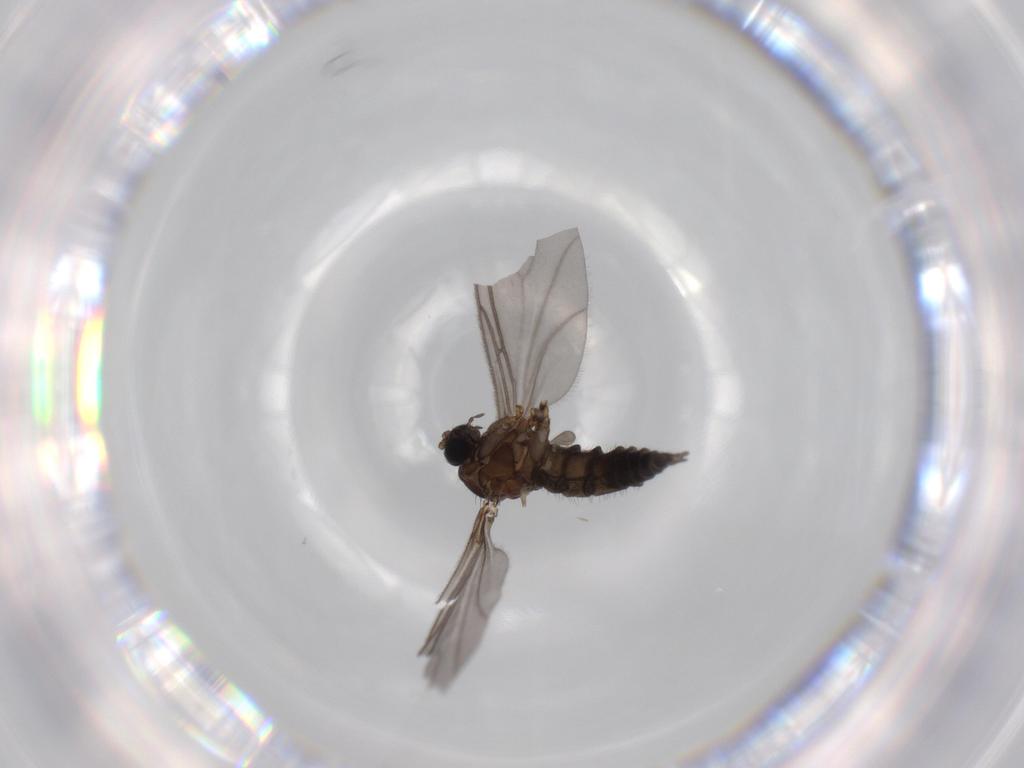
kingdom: Animalia
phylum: Arthropoda
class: Insecta
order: Diptera
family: Sciaridae
